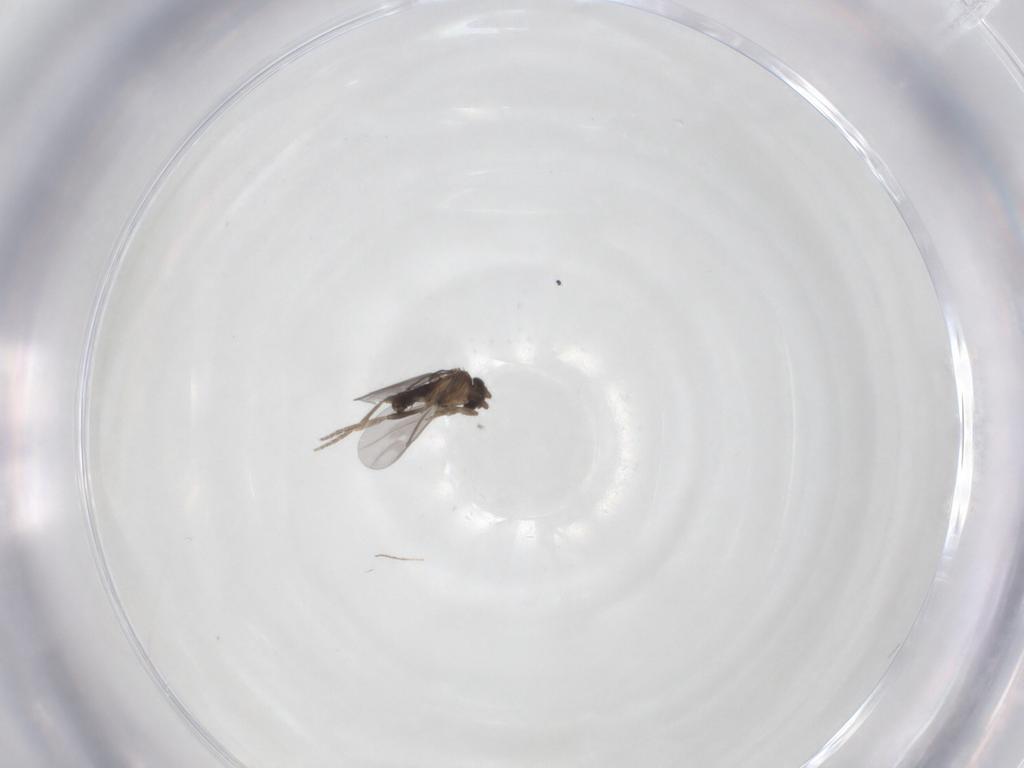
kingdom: Animalia
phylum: Arthropoda
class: Insecta
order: Diptera
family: Chironomidae
